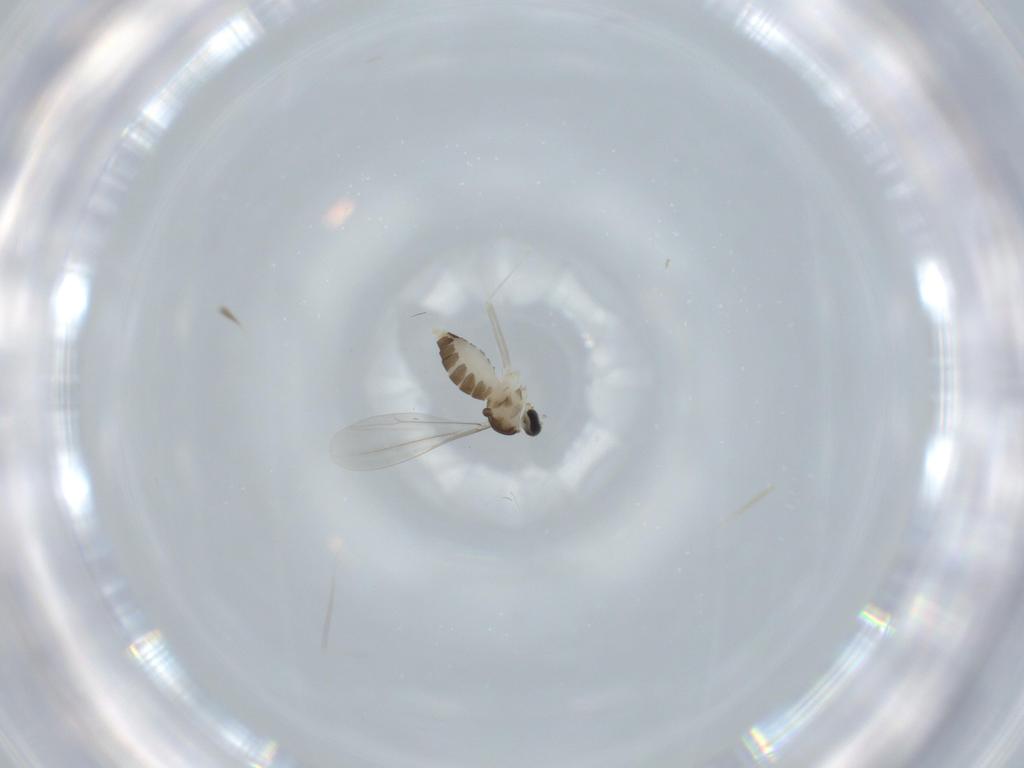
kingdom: Animalia
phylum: Arthropoda
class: Insecta
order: Diptera
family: Cecidomyiidae
